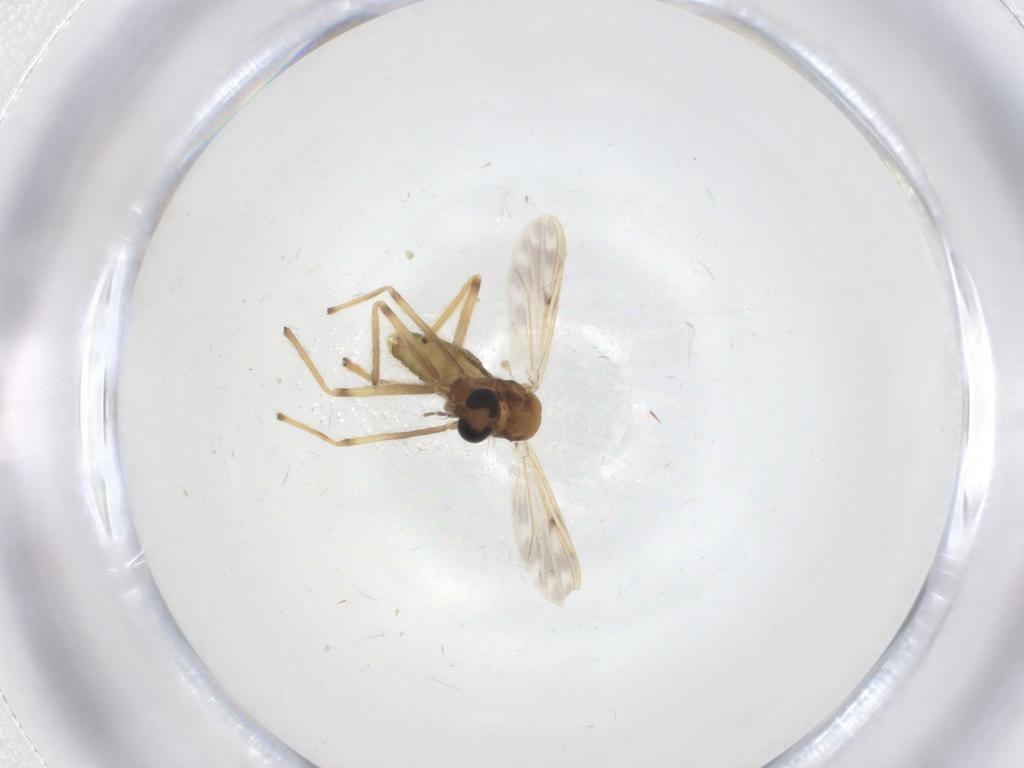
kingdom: Animalia
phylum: Arthropoda
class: Insecta
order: Diptera
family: Chironomidae
